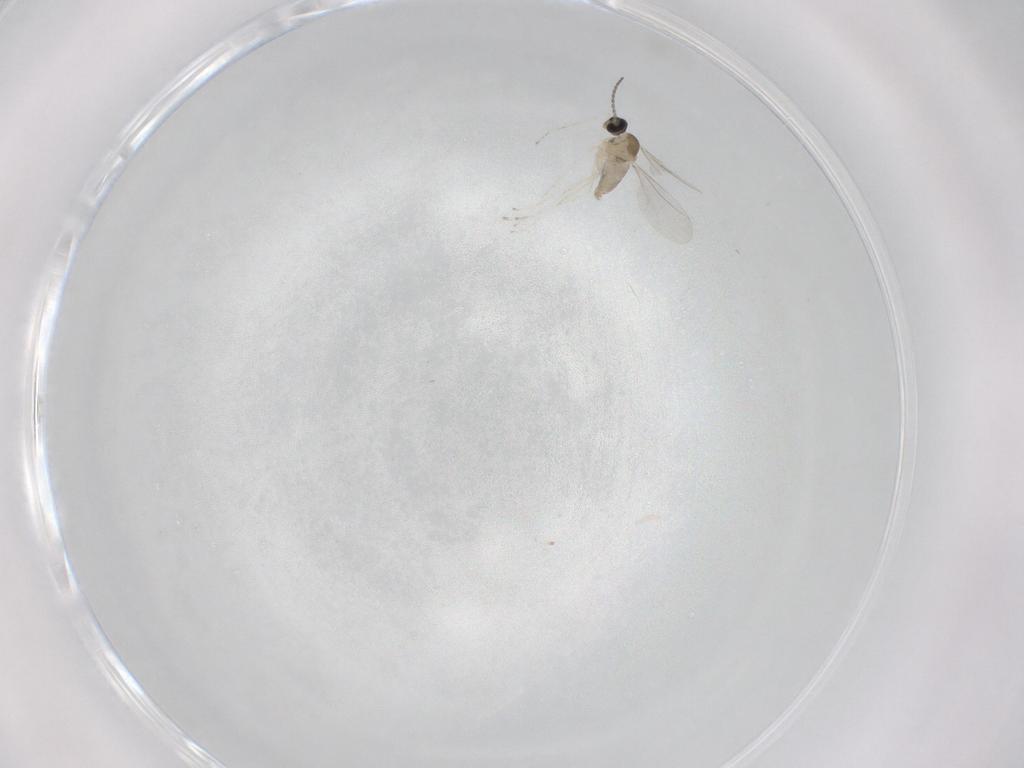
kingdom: Animalia
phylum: Arthropoda
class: Insecta
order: Diptera
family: Cecidomyiidae
